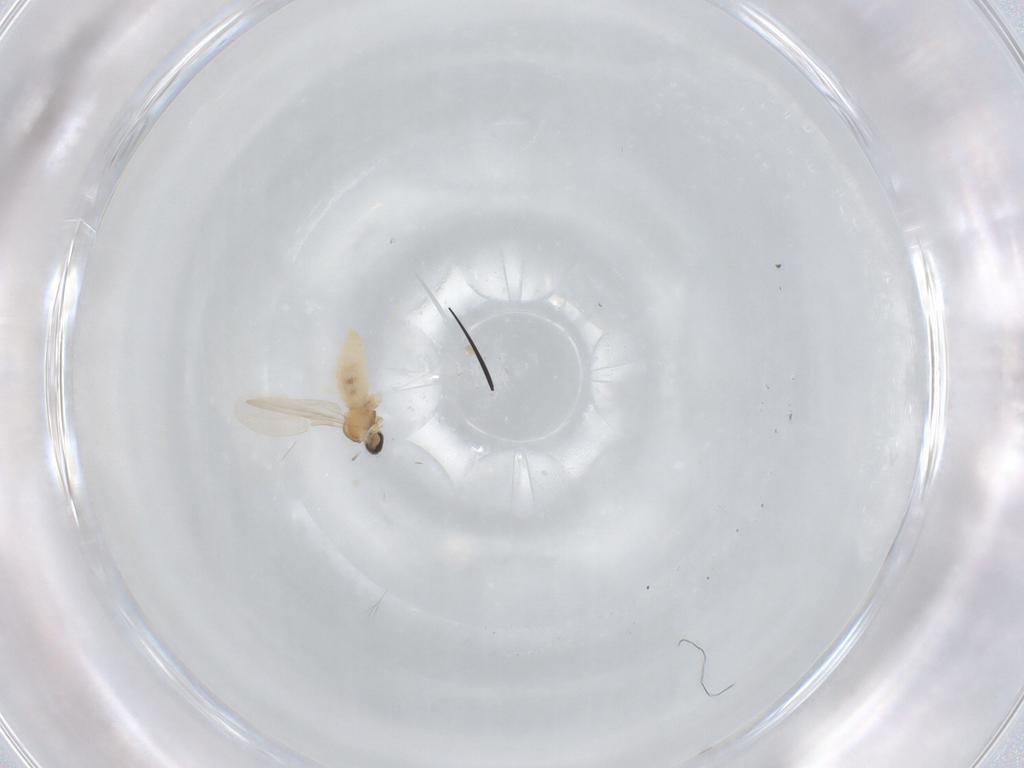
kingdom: Animalia
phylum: Arthropoda
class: Insecta
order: Diptera
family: Cecidomyiidae
